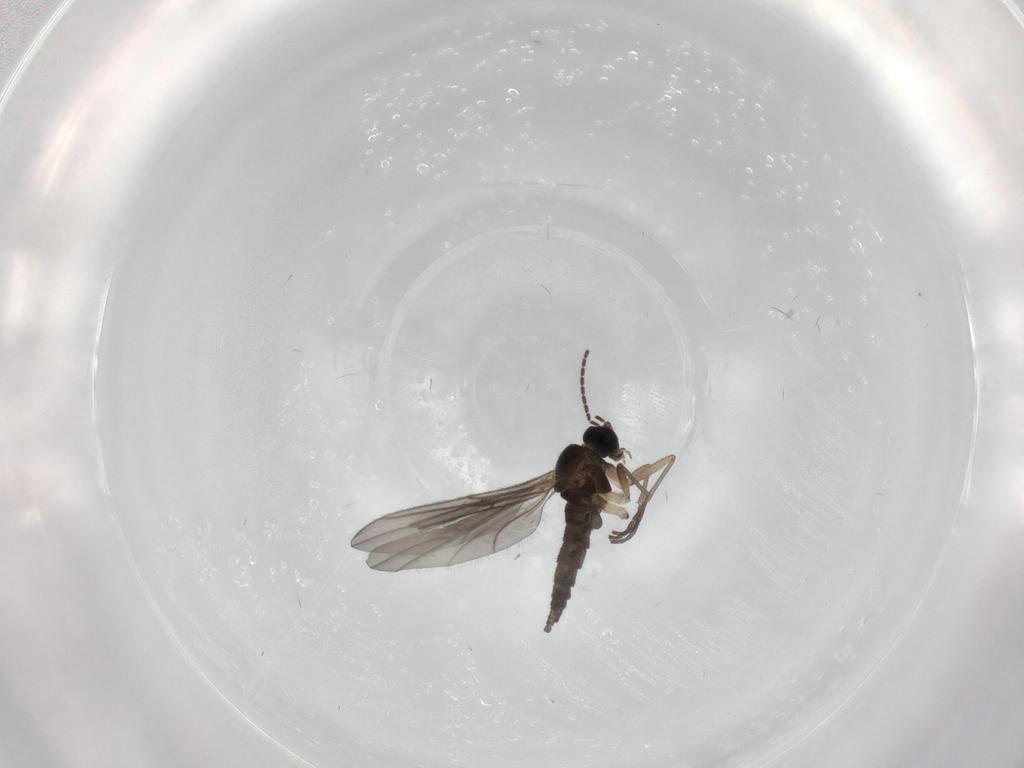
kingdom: Animalia
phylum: Arthropoda
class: Insecta
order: Diptera
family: Sciaridae
